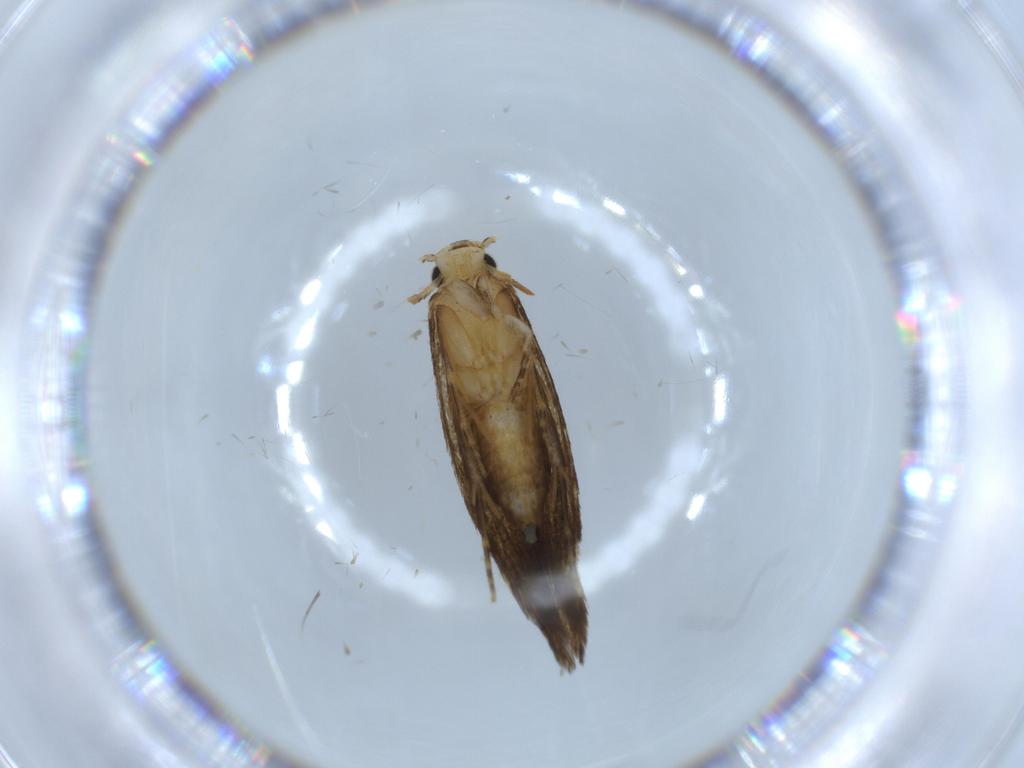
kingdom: Animalia
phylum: Arthropoda
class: Insecta
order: Lepidoptera
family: Tineidae
